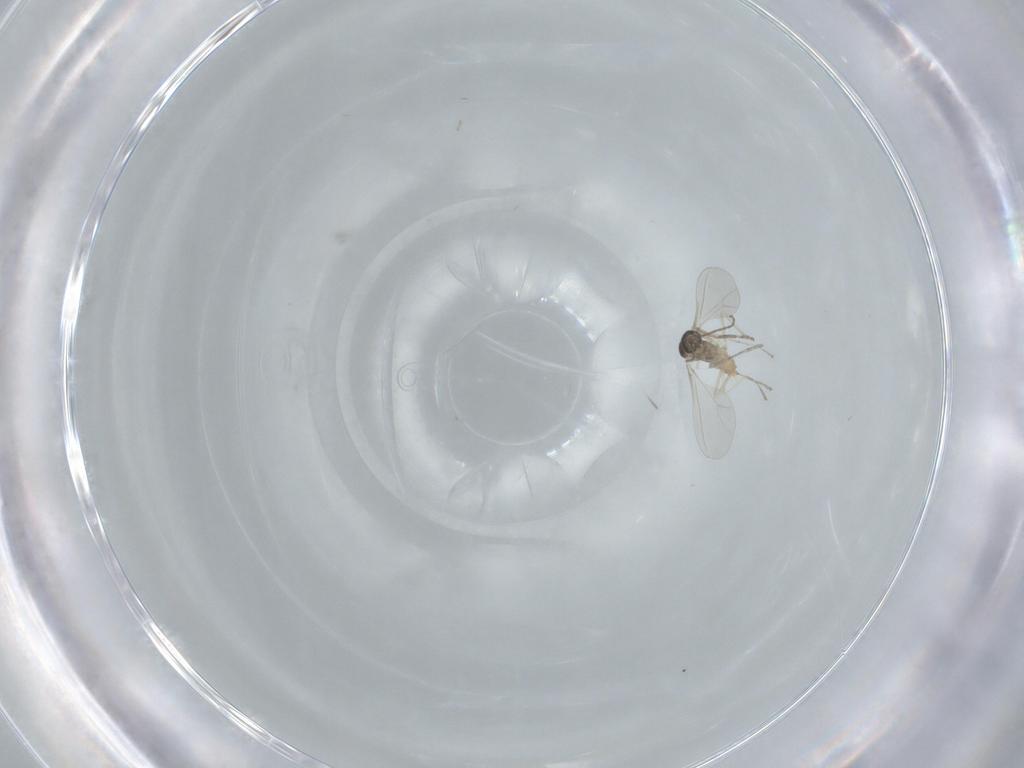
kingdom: Animalia
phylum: Arthropoda
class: Insecta
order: Diptera
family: Cecidomyiidae
